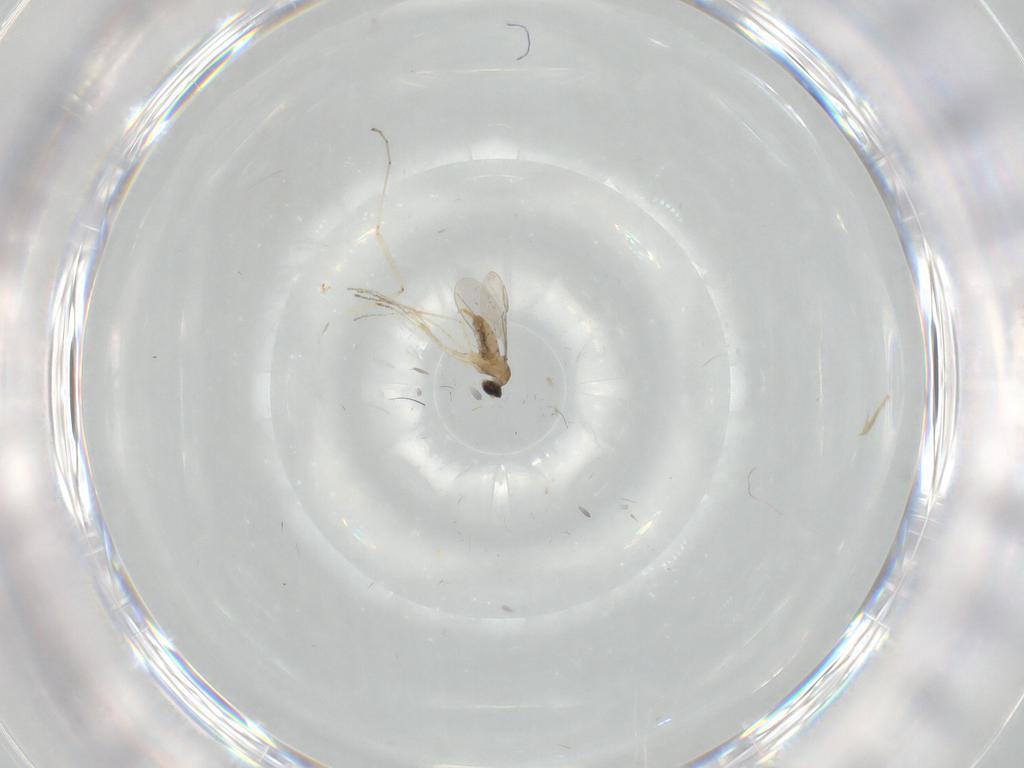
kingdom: Animalia
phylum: Arthropoda
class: Insecta
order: Diptera
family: Cecidomyiidae
